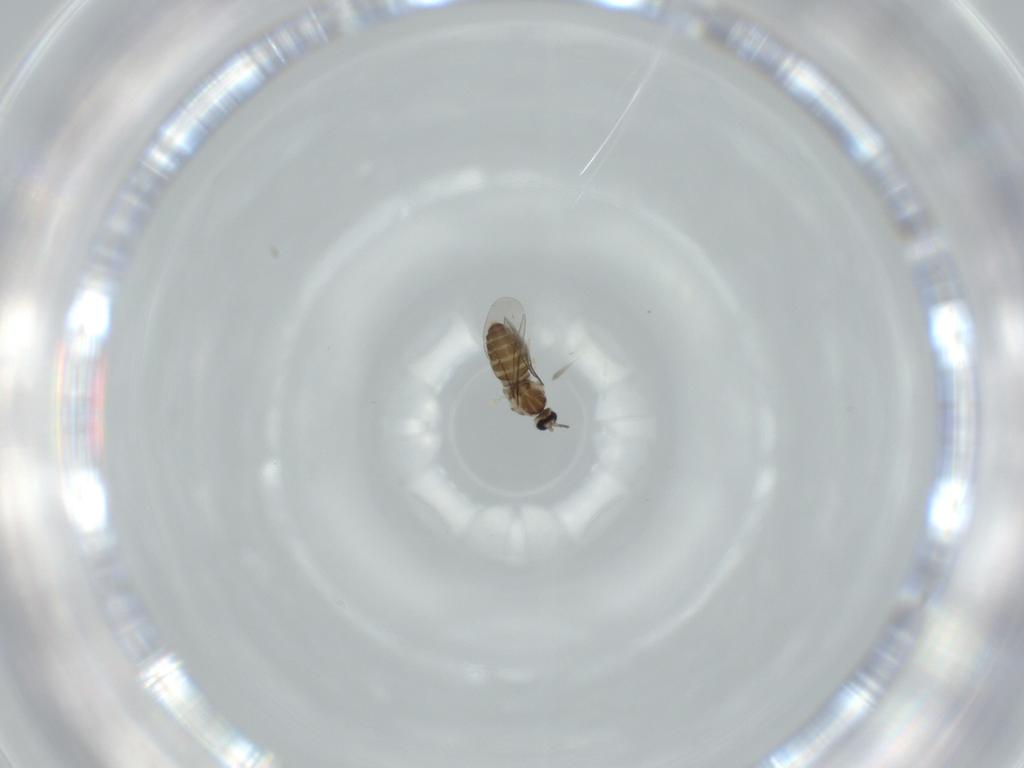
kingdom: Animalia
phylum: Arthropoda
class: Insecta
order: Diptera
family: Cecidomyiidae
